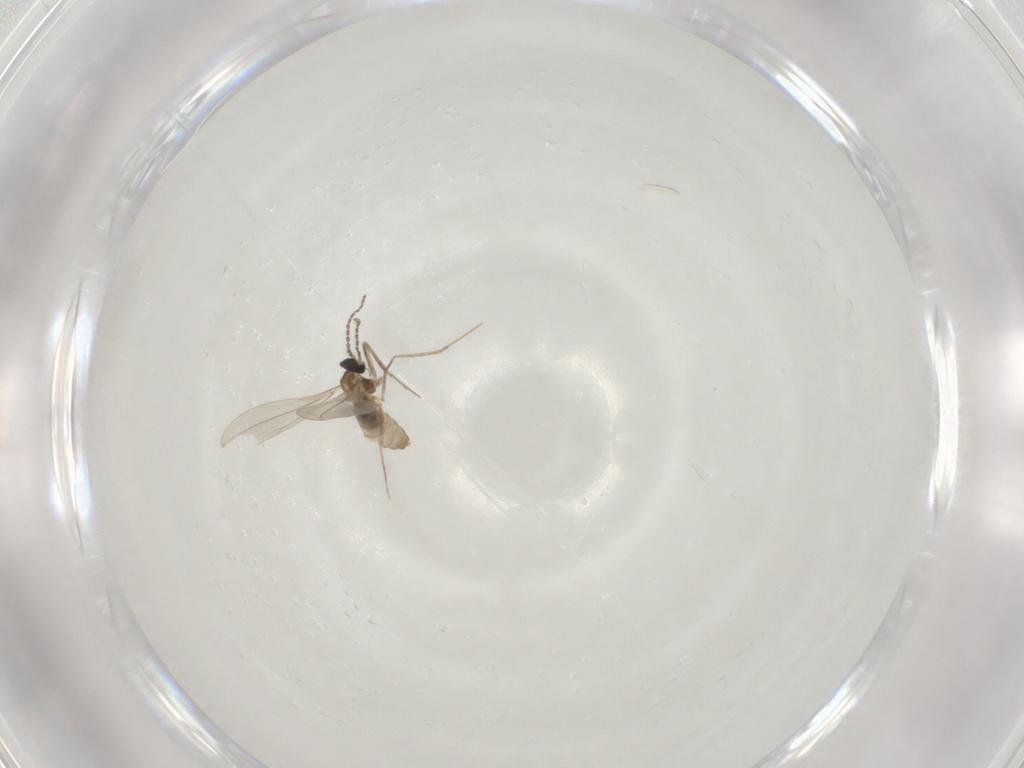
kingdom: Animalia
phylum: Arthropoda
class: Insecta
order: Diptera
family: Cecidomyiidae
